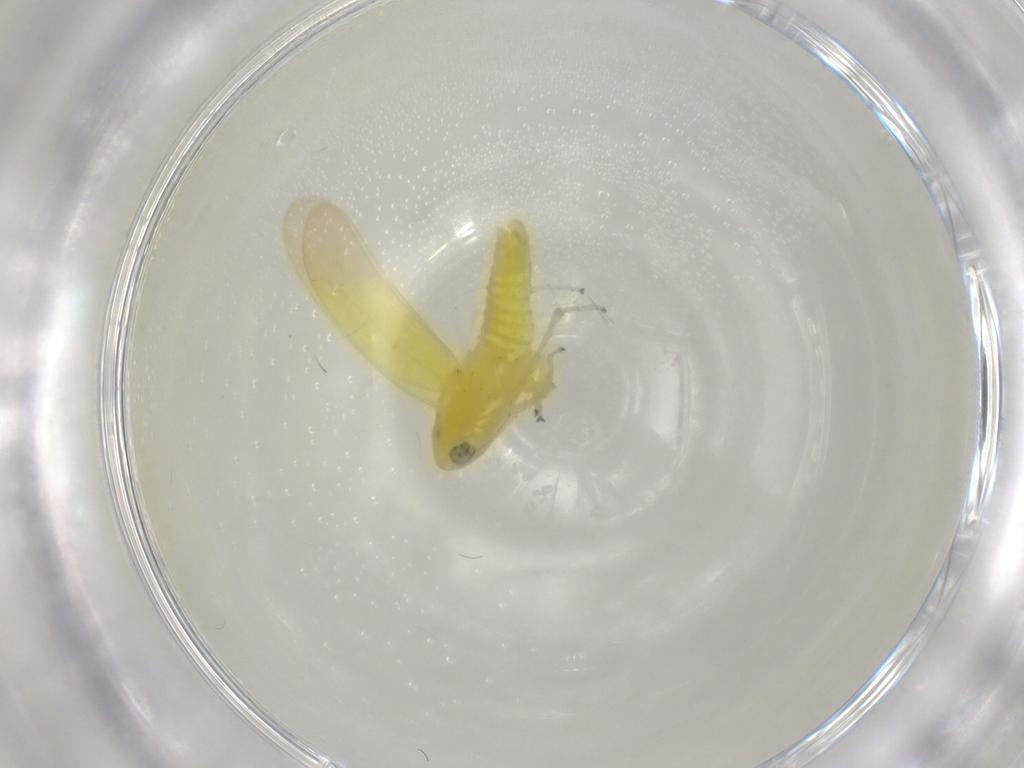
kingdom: Animalia
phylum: Arthropoda
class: Insecta
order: Hemiptera
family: Cicadellidae
